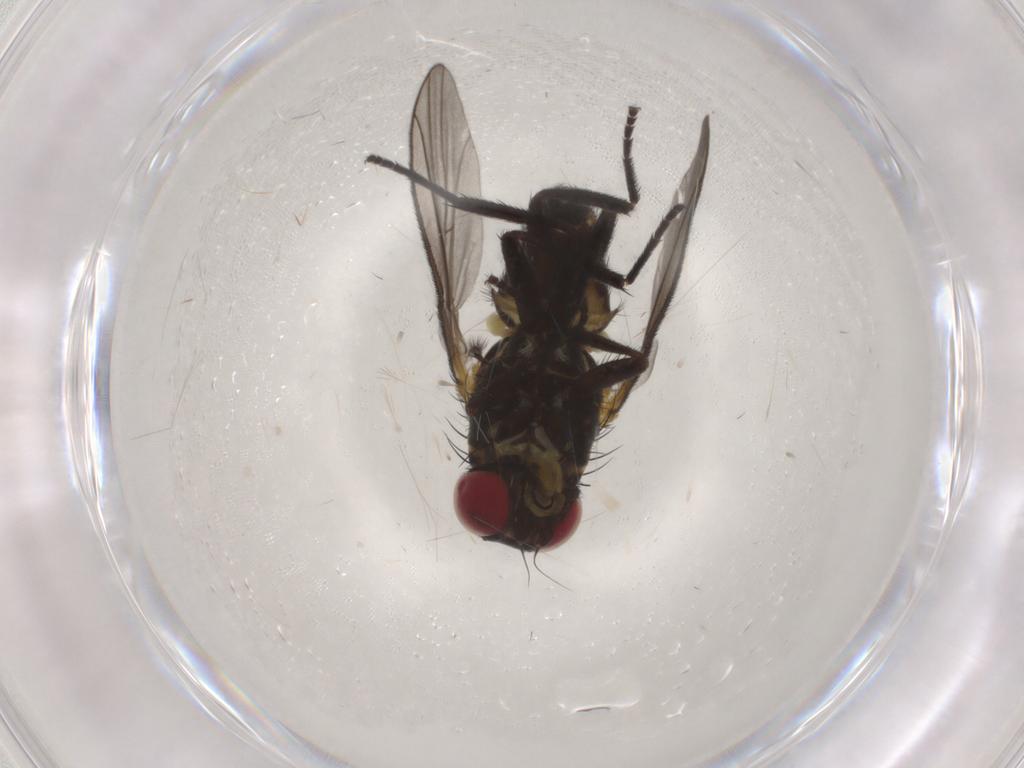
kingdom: Animalia
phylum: Arthropoda
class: Insecta
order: Diptera
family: Agromyzidae
